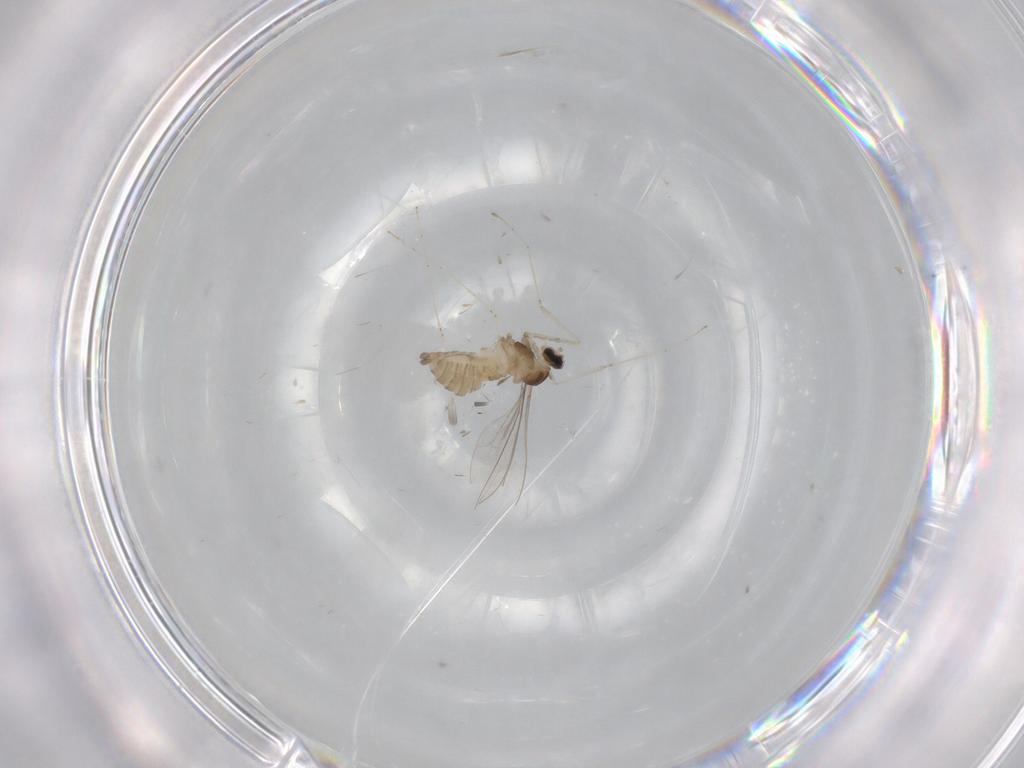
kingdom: Animalia
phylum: Arthropoda
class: Insecta
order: Diptera
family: Cecidomyiidae
